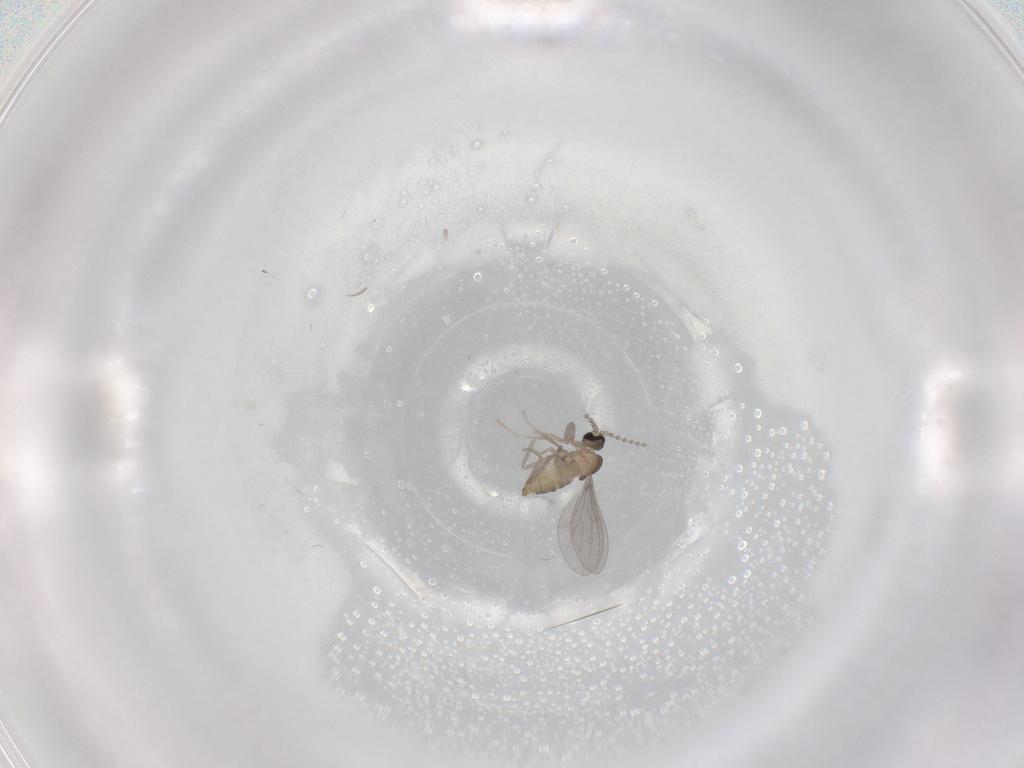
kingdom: Animalia
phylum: Arthropoda
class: Insecta
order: Diptera
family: Cecidomyiidae
